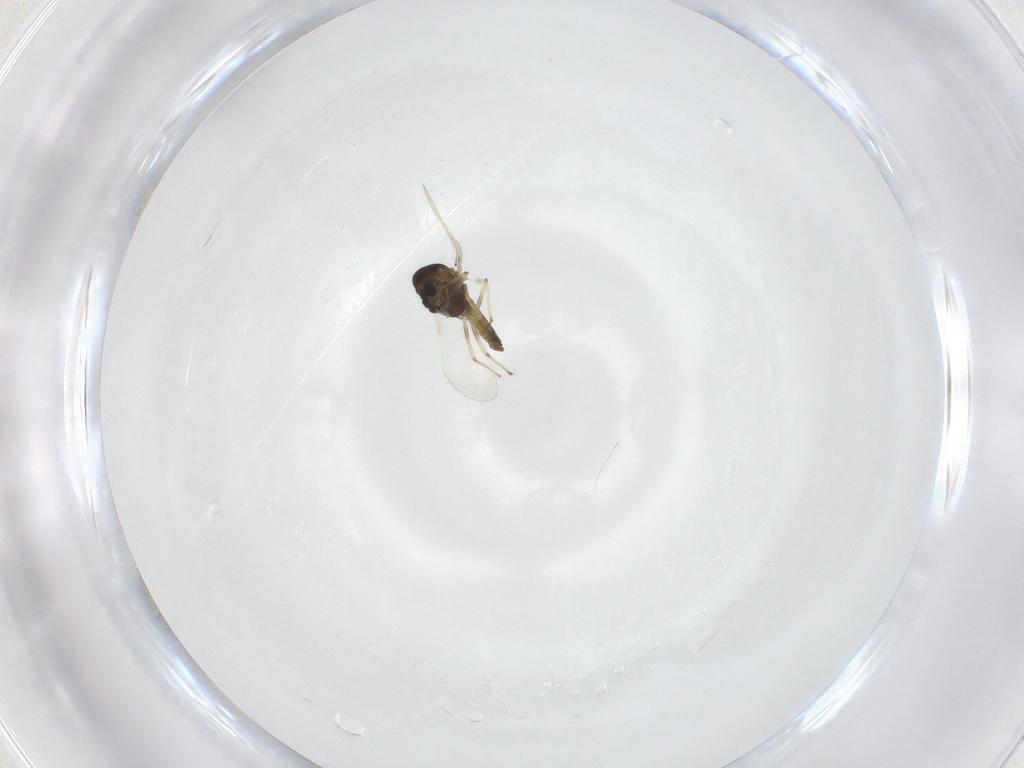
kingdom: Animalia
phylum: Arthropoda
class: Insecta
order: Diptera
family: Chironomidae
